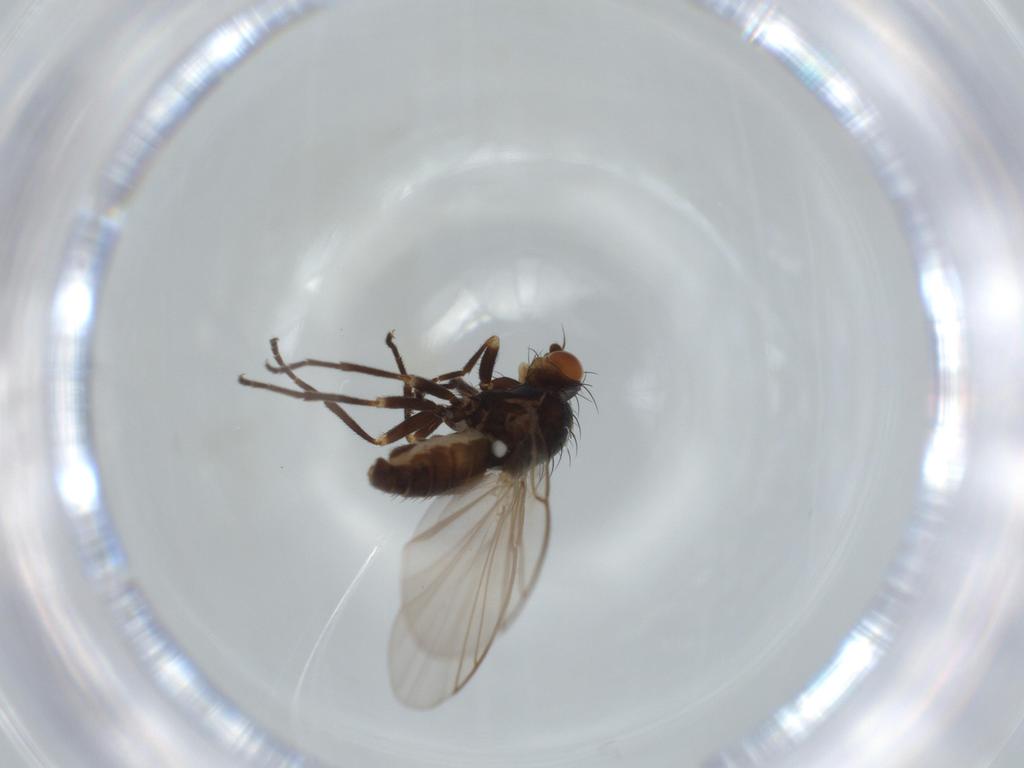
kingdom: Animalia
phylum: Arthropoda
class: Insecta
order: Diptera
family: Agromyzidae
